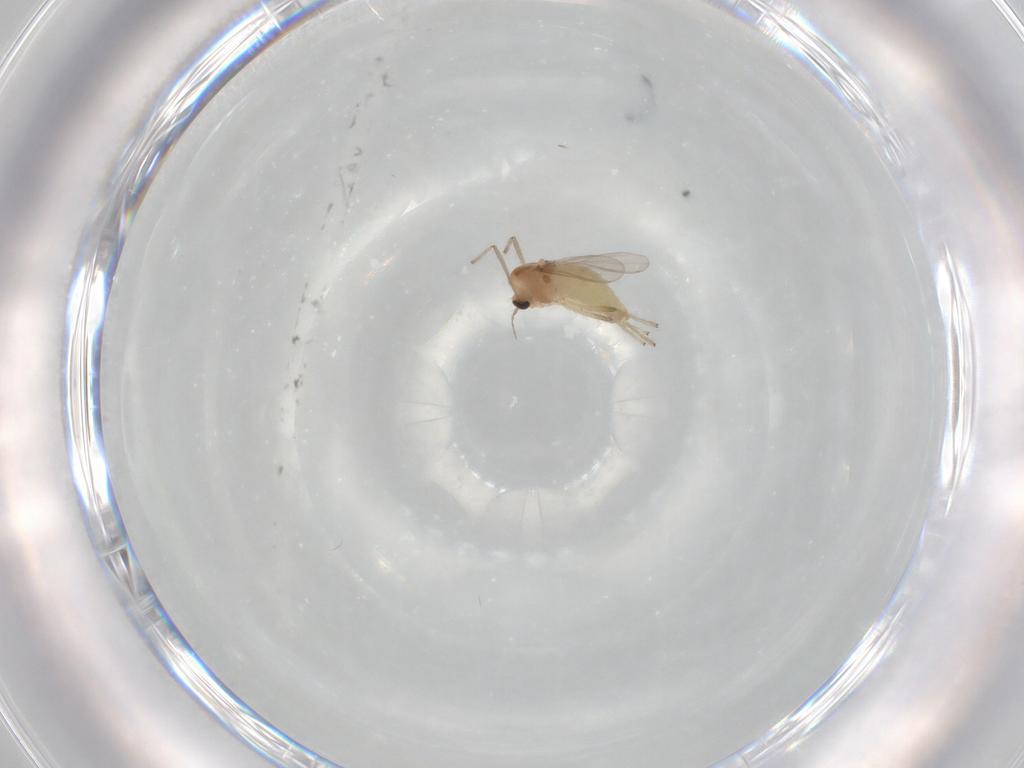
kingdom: Animalia
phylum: Arthropoda
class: Insecta
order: Diptera
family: Chironomidae
